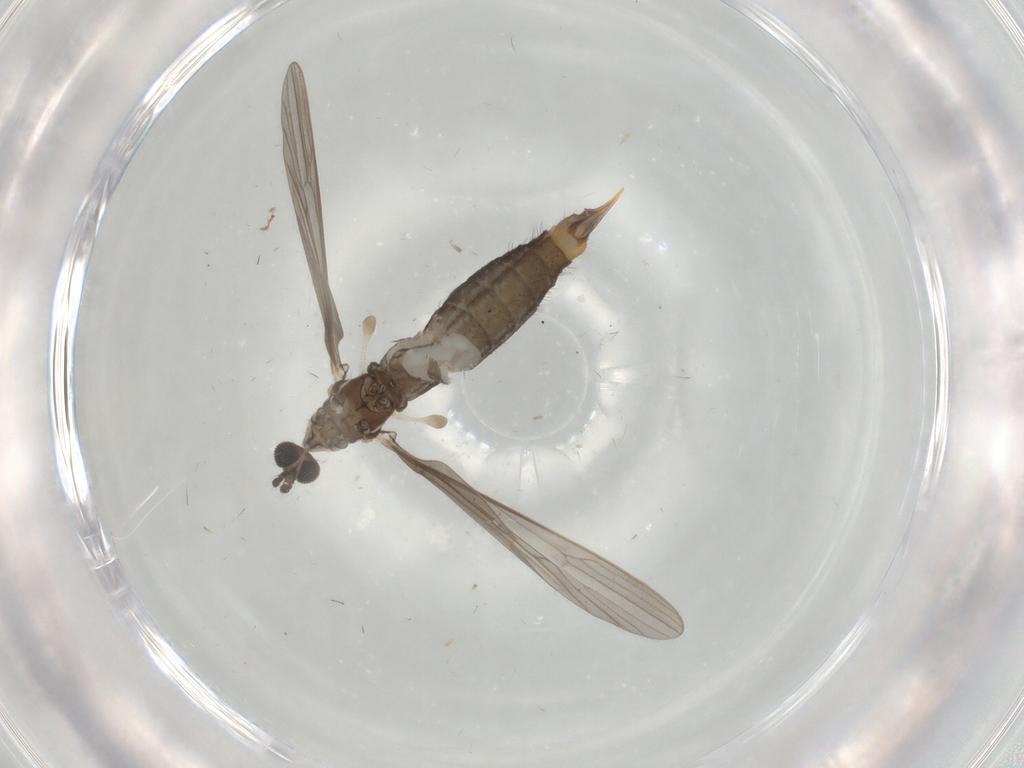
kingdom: Animalia
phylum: Arthropoda
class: Insecta
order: Diptera
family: Limoniidae
